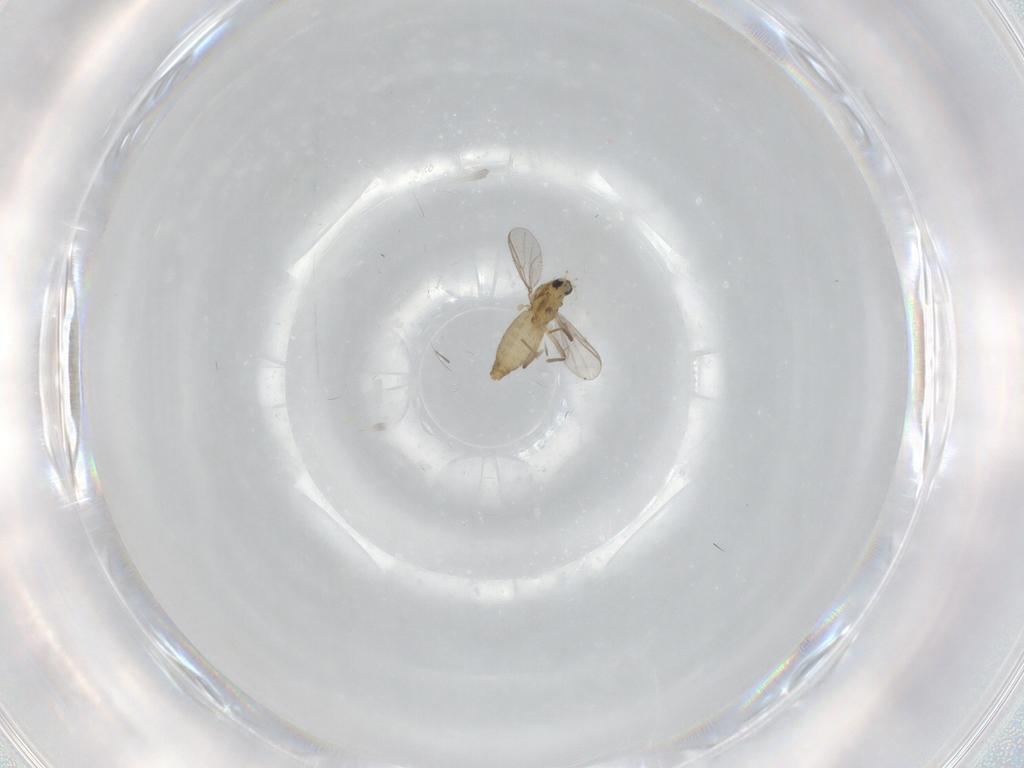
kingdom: Animalia
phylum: Arthropoda
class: Insecta
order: Diptera
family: Chironomidae
